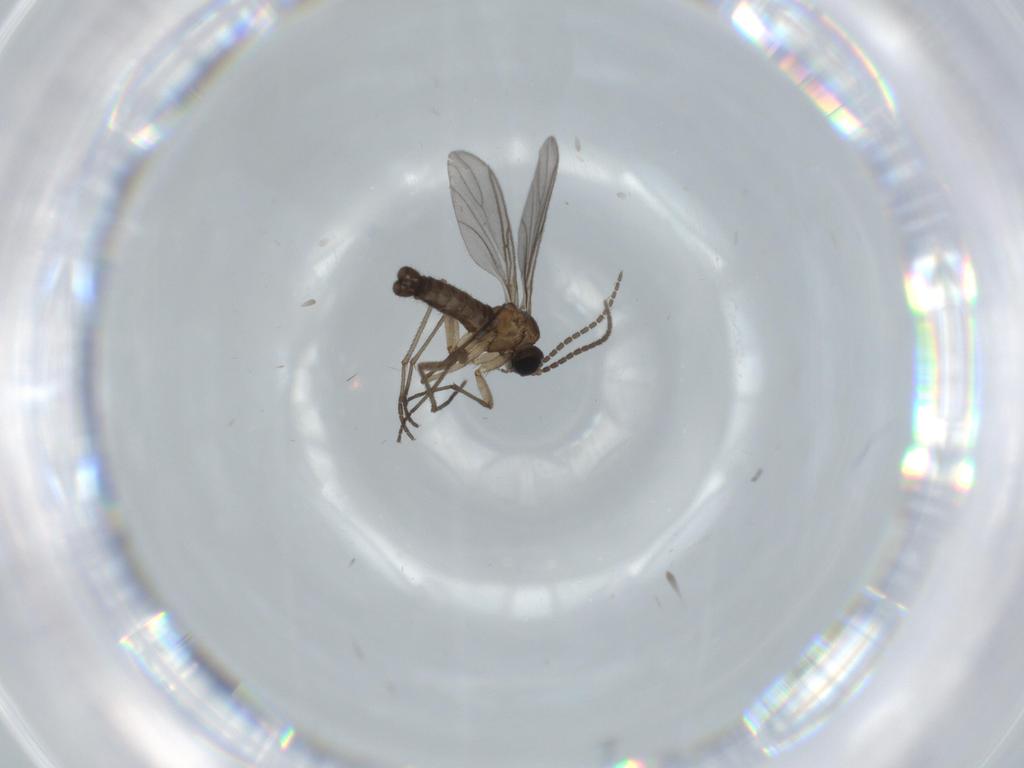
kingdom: Animalia
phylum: Arthropoda
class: Insecta
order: Diptera
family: Sciaridae
